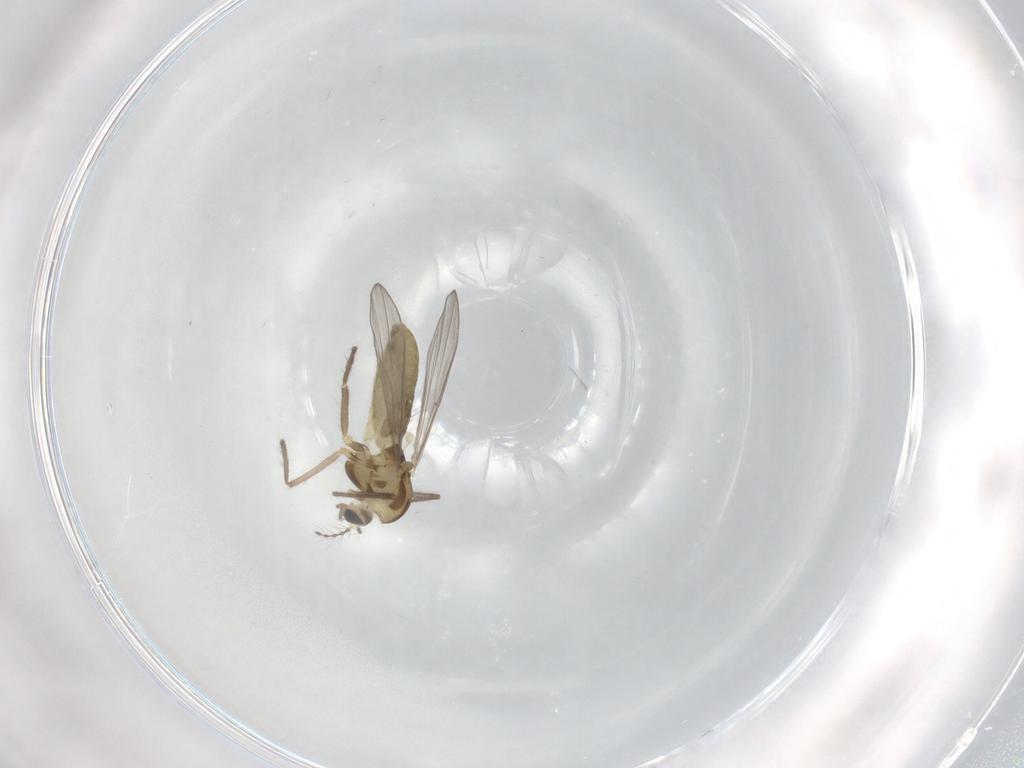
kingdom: Animalia
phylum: Arthropoda
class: Insecta
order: Diptera
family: Chironomidae
